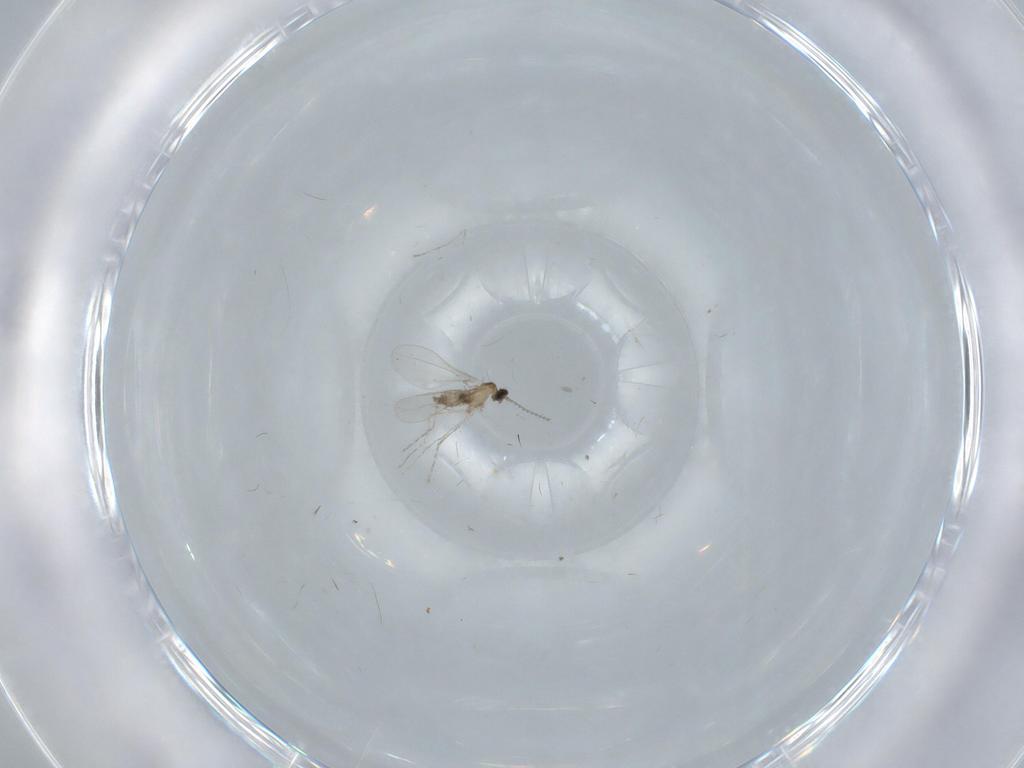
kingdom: Animalia
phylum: Arthropoda
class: Insecta
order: Diptera
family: Cecidomyiidae
